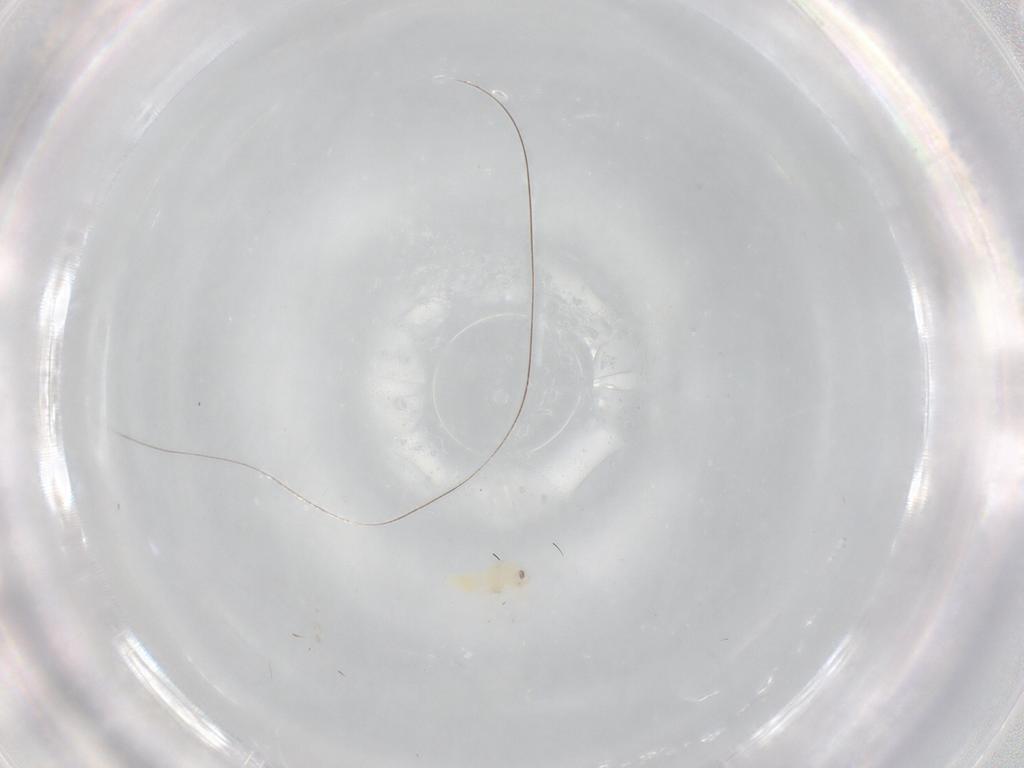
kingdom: Animalia
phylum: Arthropoda
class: Insecta
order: Hemiptera
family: Aleyrodidae
